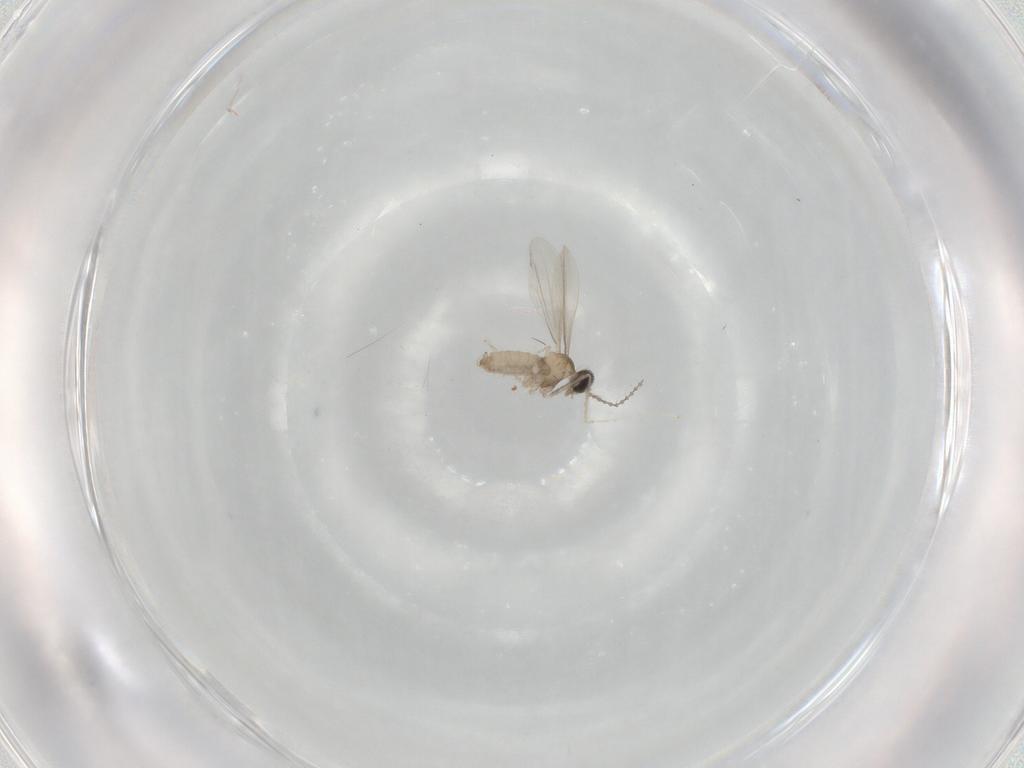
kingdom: Animalia
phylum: Arthropoda
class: Insecta
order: Diptera
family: Cecidomyiidae
